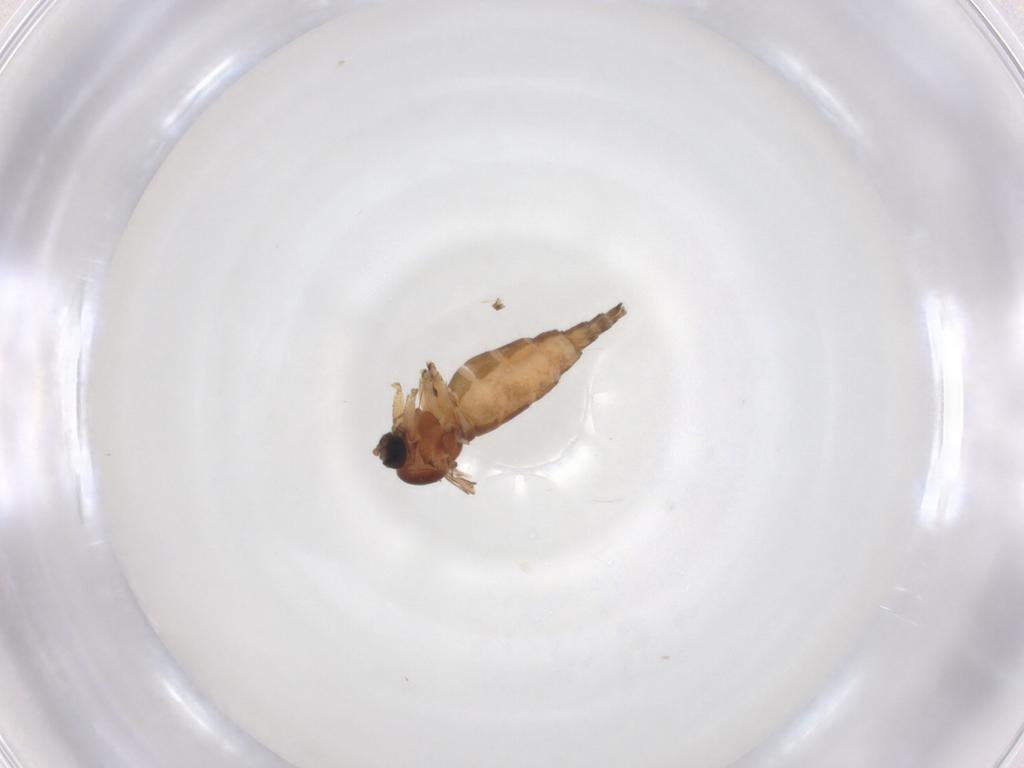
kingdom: Animalia
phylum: Arthropoda
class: Insecta
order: Diptera
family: Sciaridae
